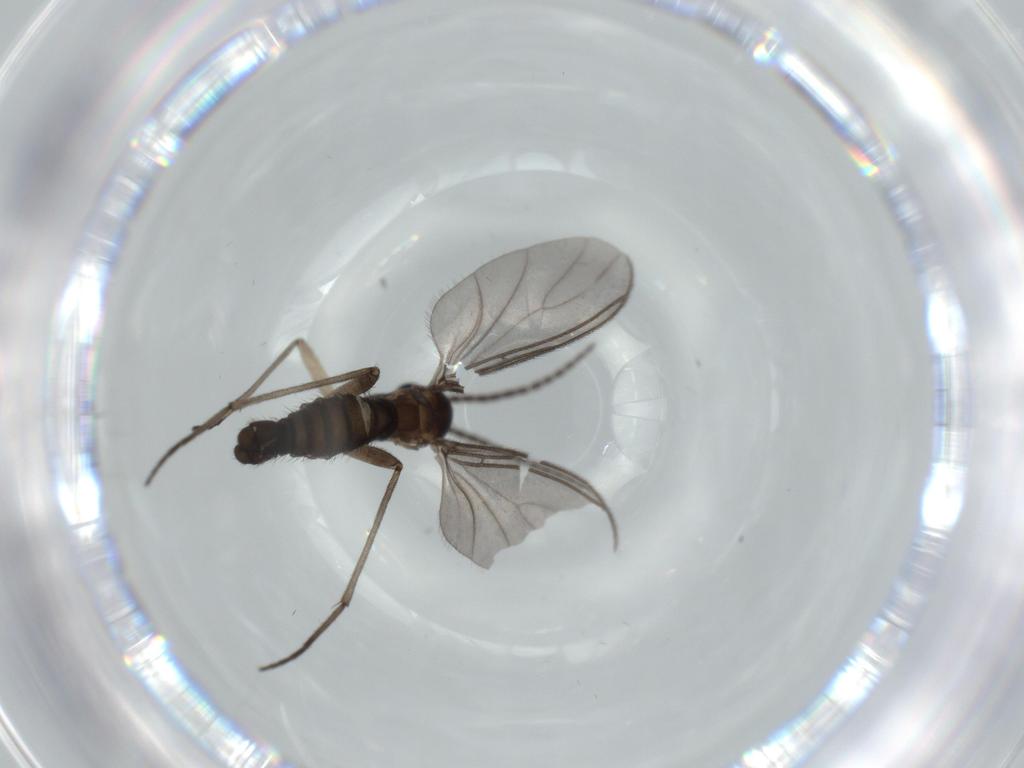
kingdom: Animalia
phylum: Arthropoda
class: Insecta
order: Diptera
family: Sciaridae
